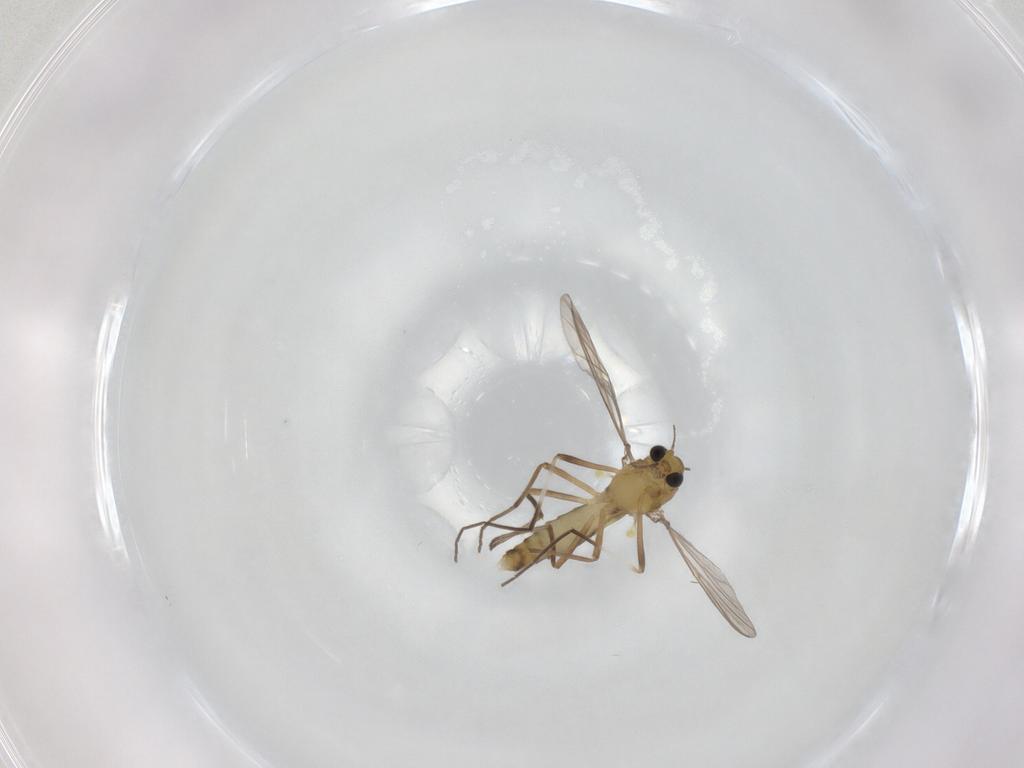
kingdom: Animalia
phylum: Arthropoda
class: Insecta
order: Diptera
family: Chironomidae
